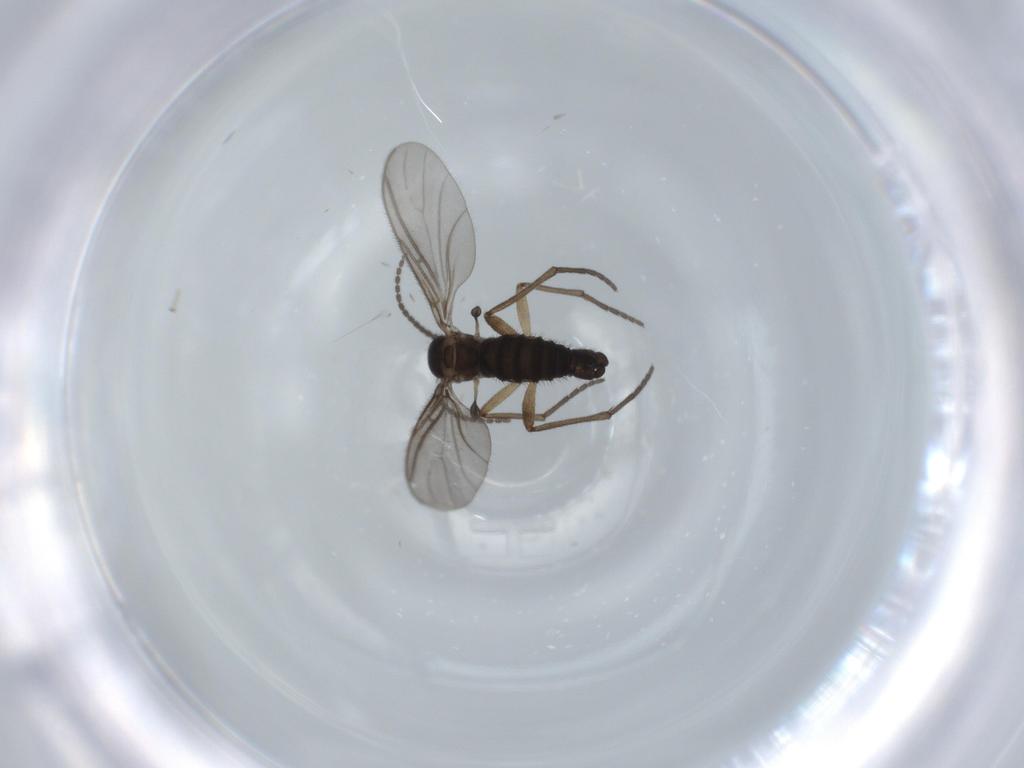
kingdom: Animalia
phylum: Arthropoda
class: Insecta
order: Diptera
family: Sciaridae
